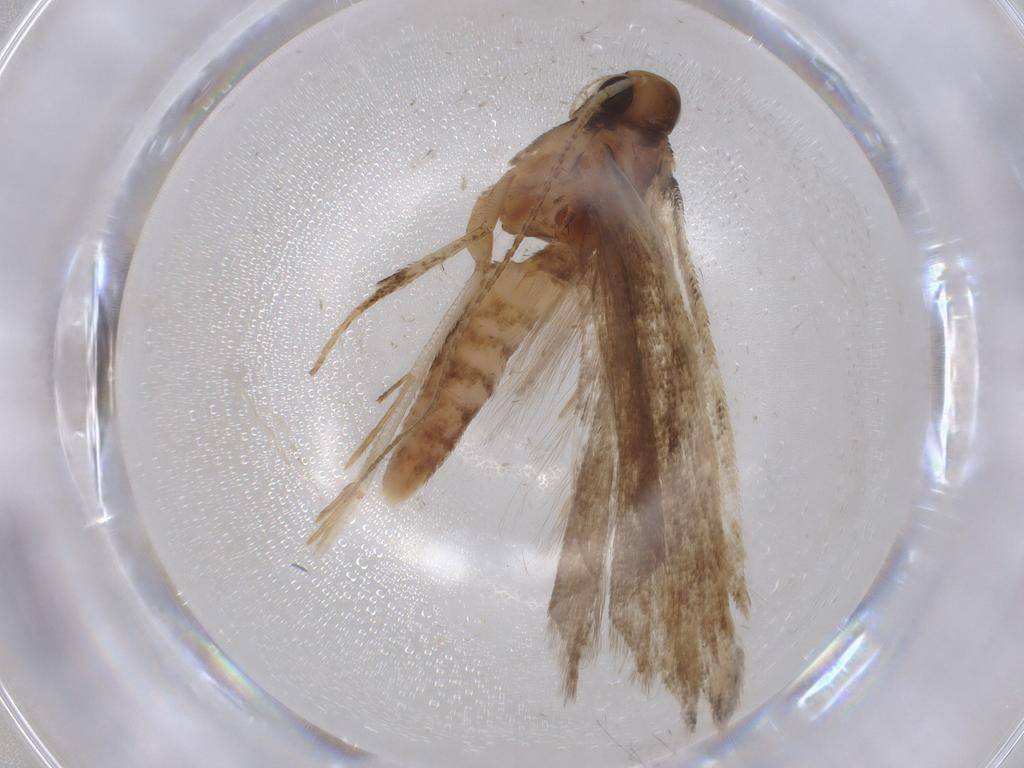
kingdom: Animalia
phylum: Arthropoda
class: Insecta
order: Lepidoptera
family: Gelechiidae
